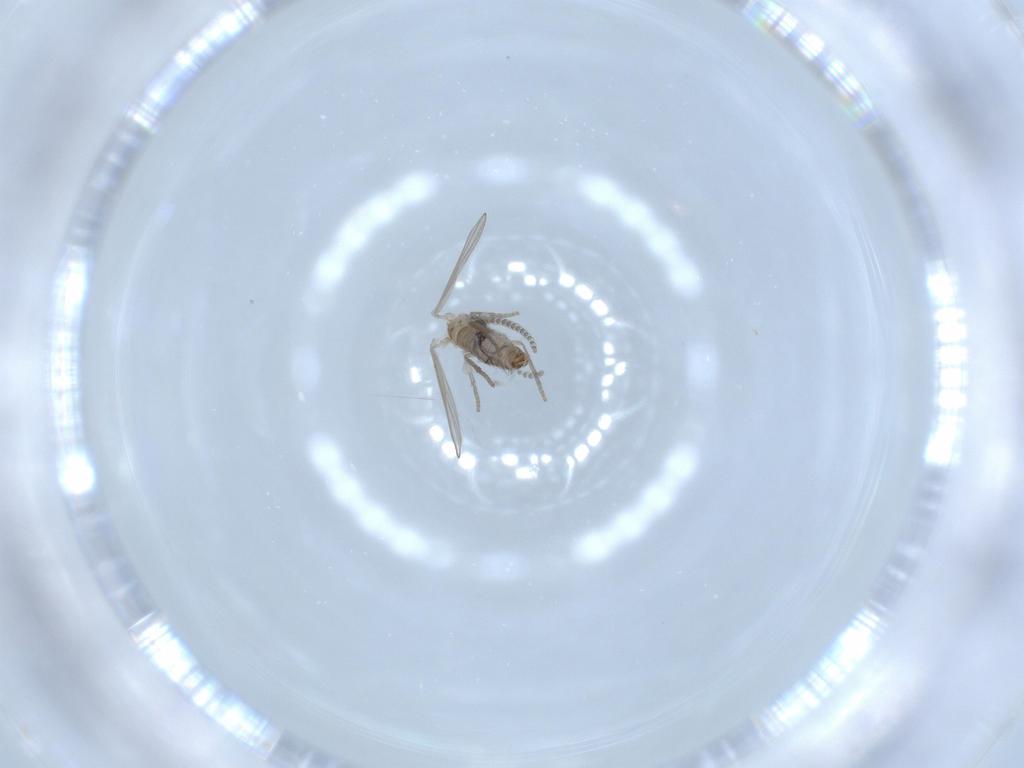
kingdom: Animalia
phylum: Arthropoda
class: Insecta
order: Diptera
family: Psychodidae
